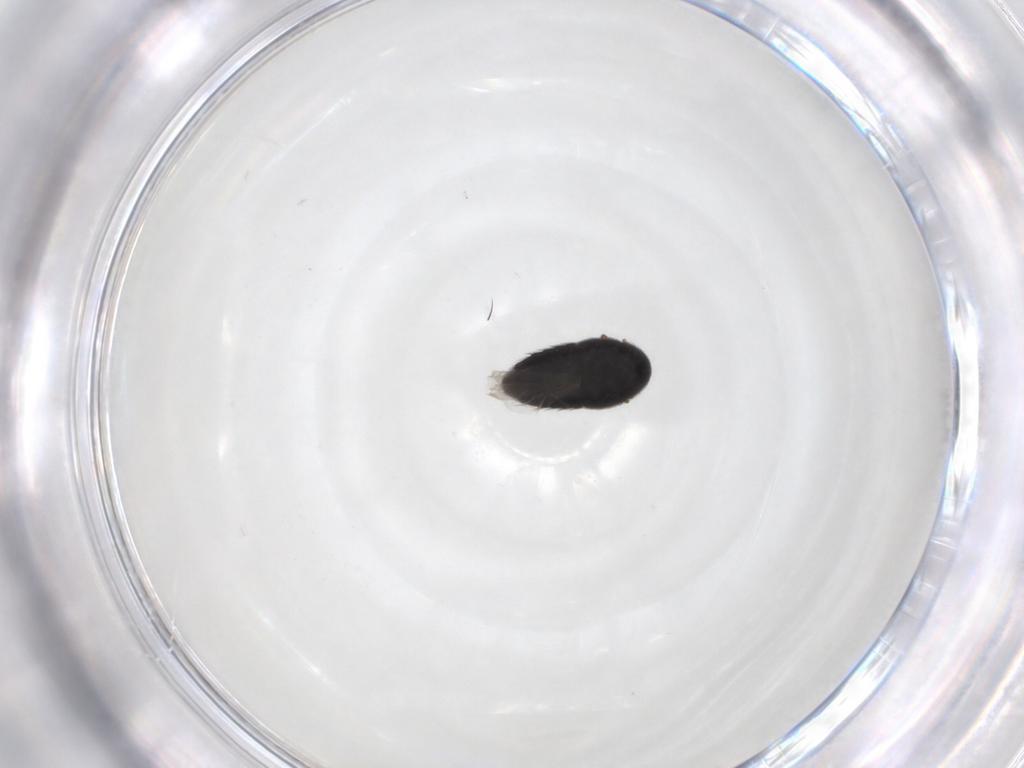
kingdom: Animalia
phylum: Arthropoda
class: Insecta
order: Coleoptera
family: Staphylinidae
